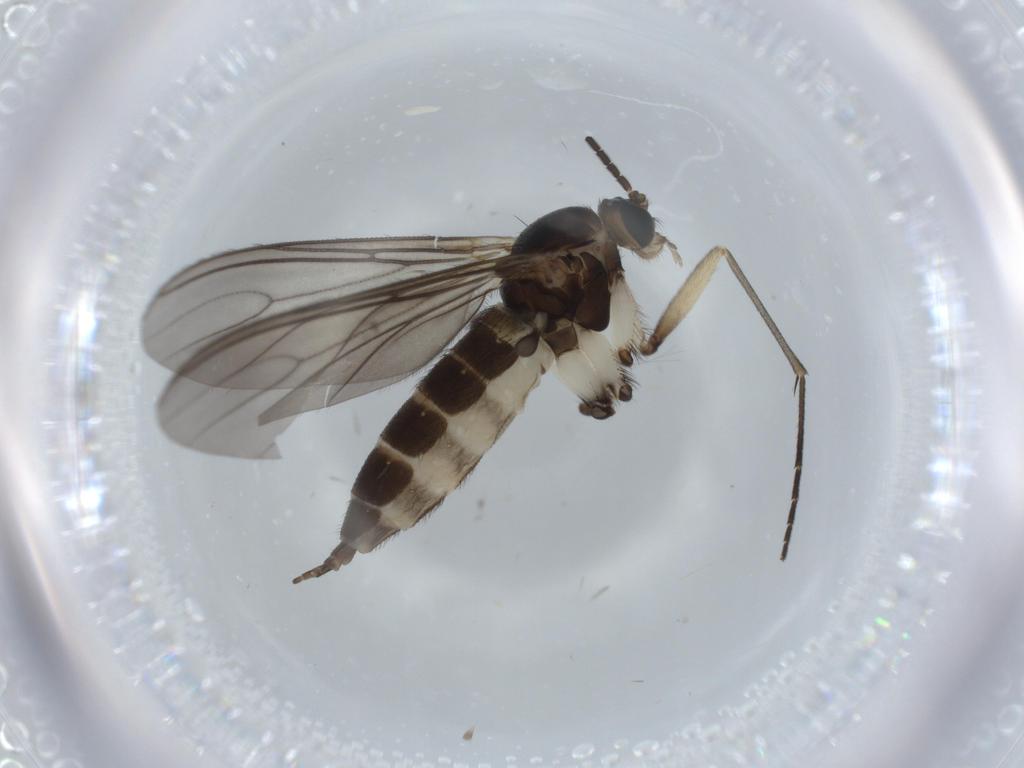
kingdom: Animalia
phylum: Arthropoda
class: Insecta
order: Diptera
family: Sciaridae
